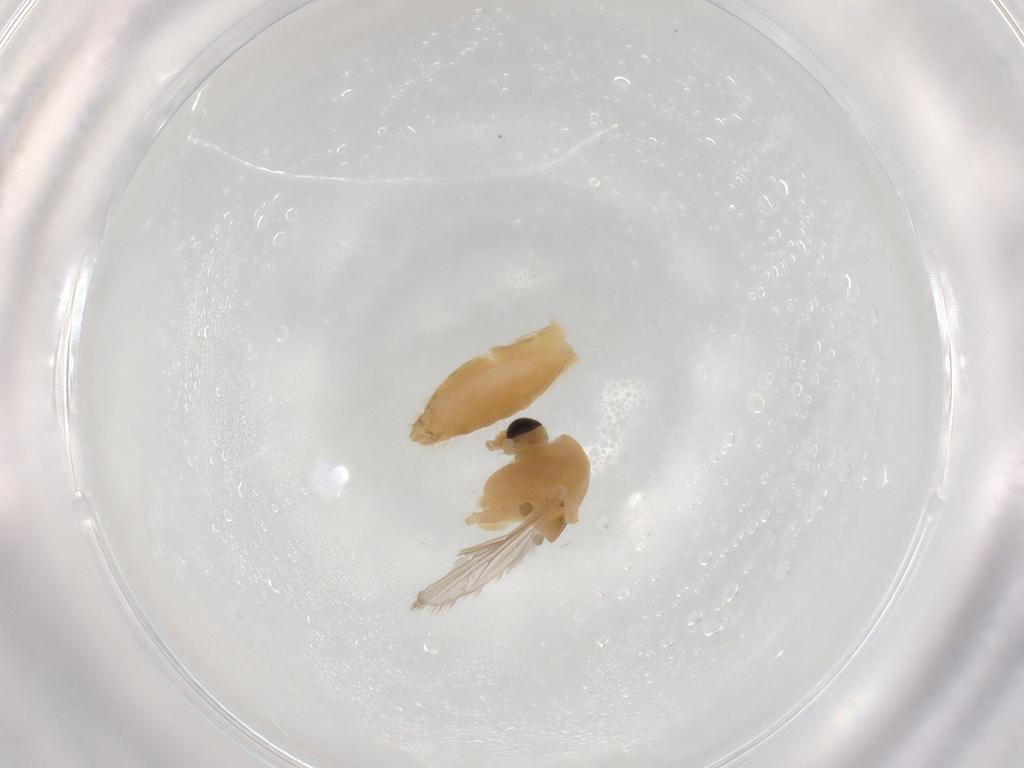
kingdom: Animalia
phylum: Arthropoda
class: Insecta
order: Diptera
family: Chironomidae
